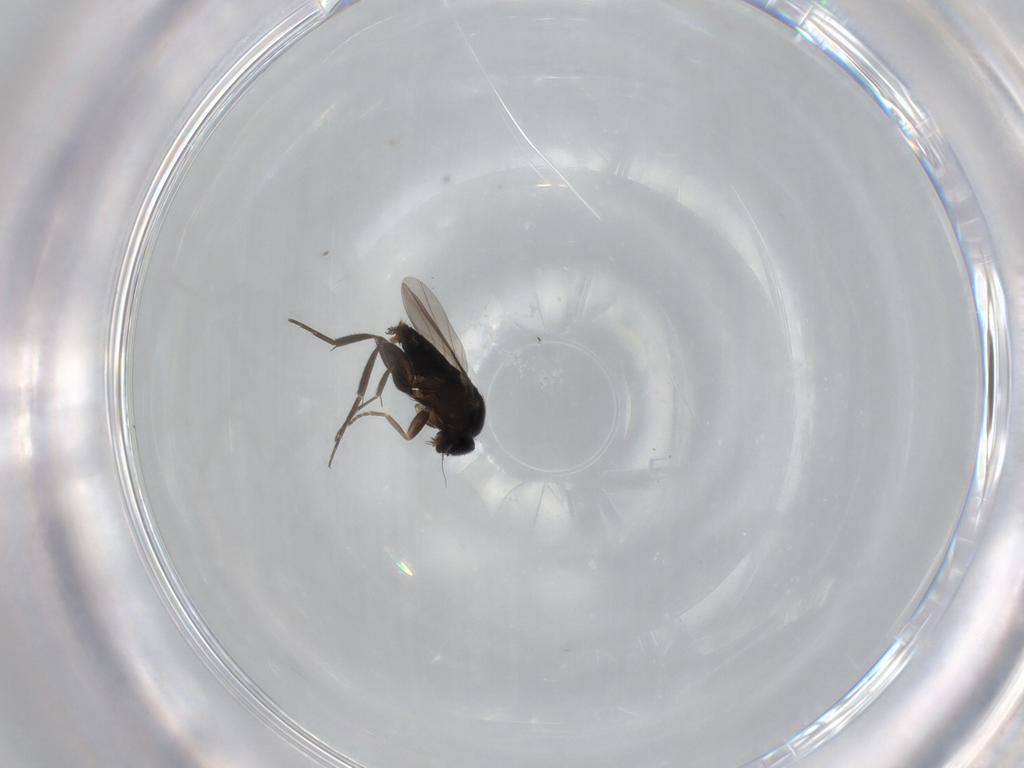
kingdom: Animalia
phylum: Arthropoda
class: Insecta
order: Diptera
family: Phoridae
